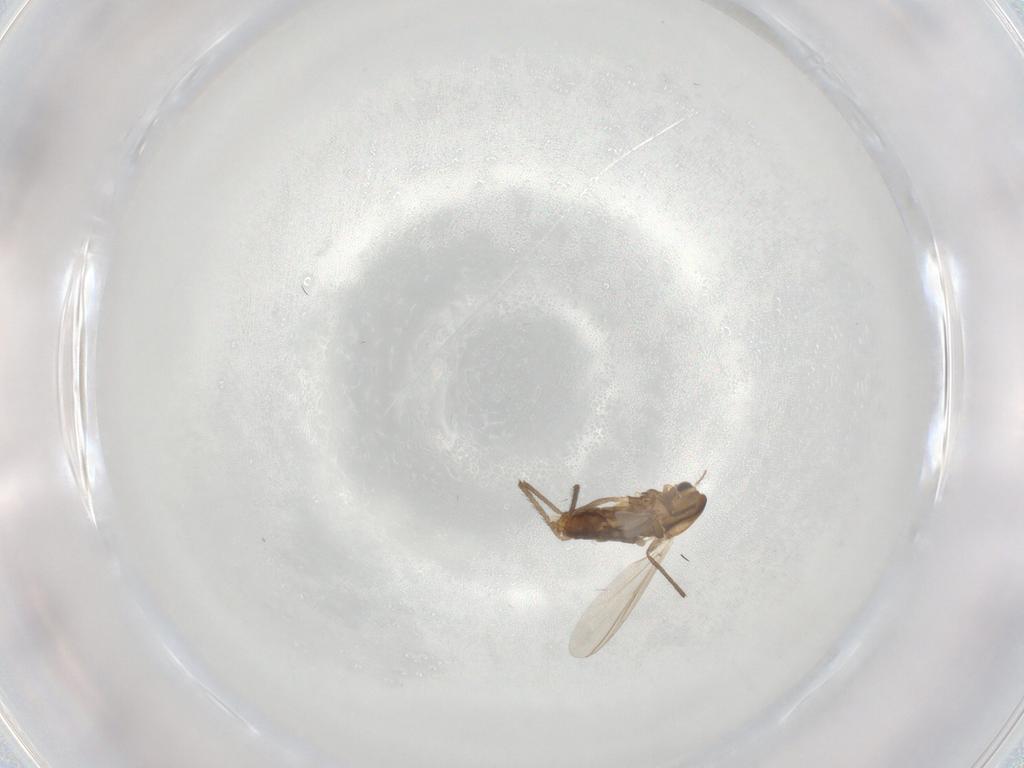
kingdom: Animalia
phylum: Arthropoda
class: Insecta
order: Diptera
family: Chironomidae
